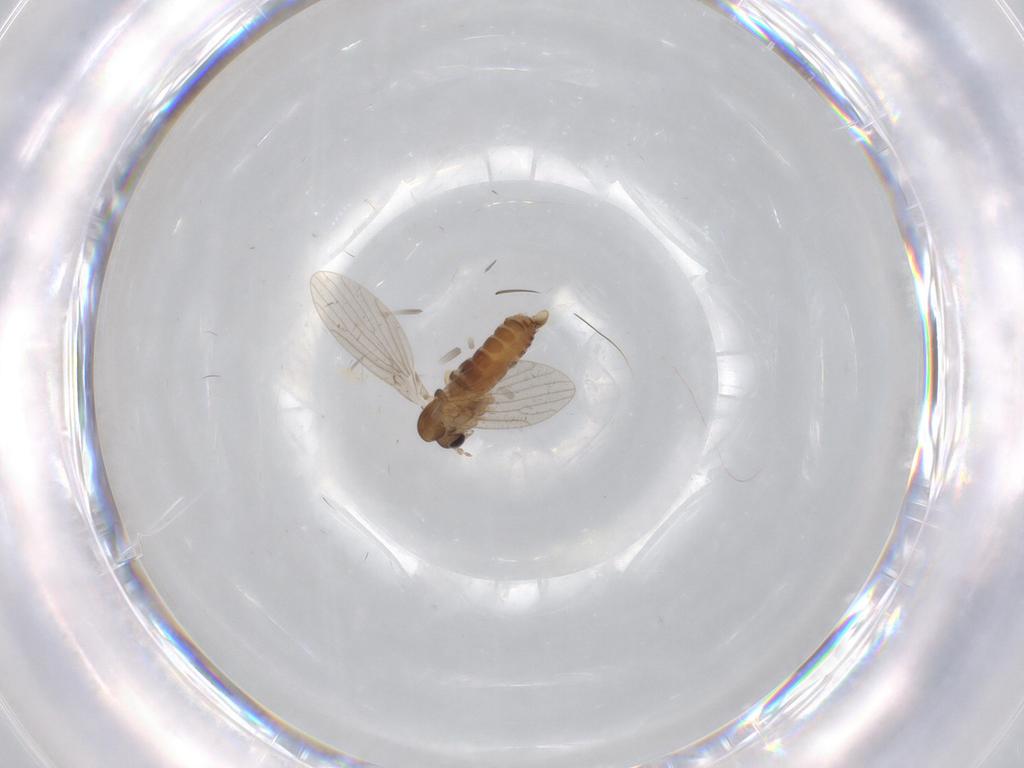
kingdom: Animalia
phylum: Arthropoda
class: Insecta
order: Diptera
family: Psychodidae
